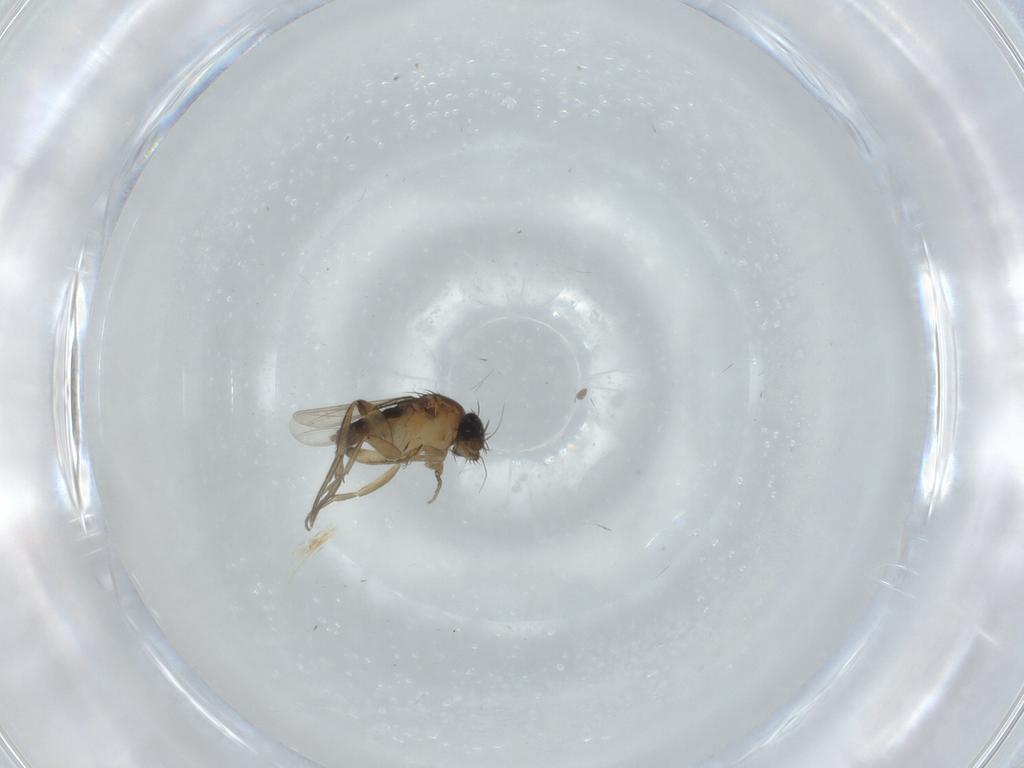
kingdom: Animalia
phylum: Arthropoda
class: Insecta
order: Diptera
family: Phoridae
